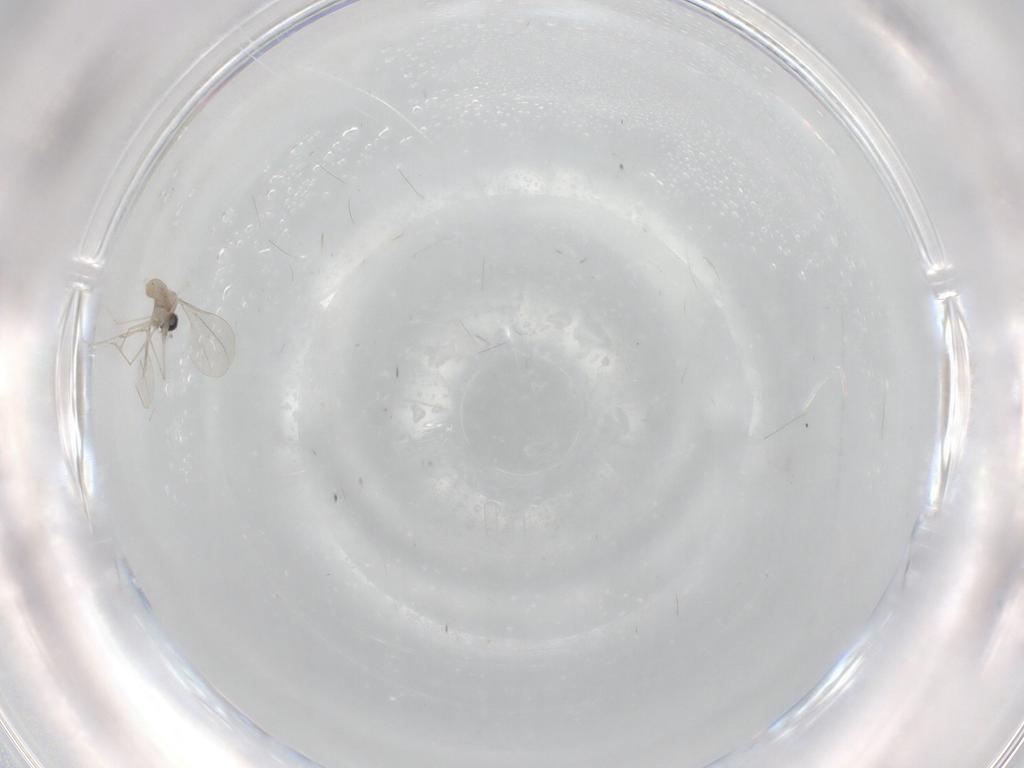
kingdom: Animalia
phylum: Arthropoda
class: Insecta
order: Diptera
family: Cecidomyiidae
